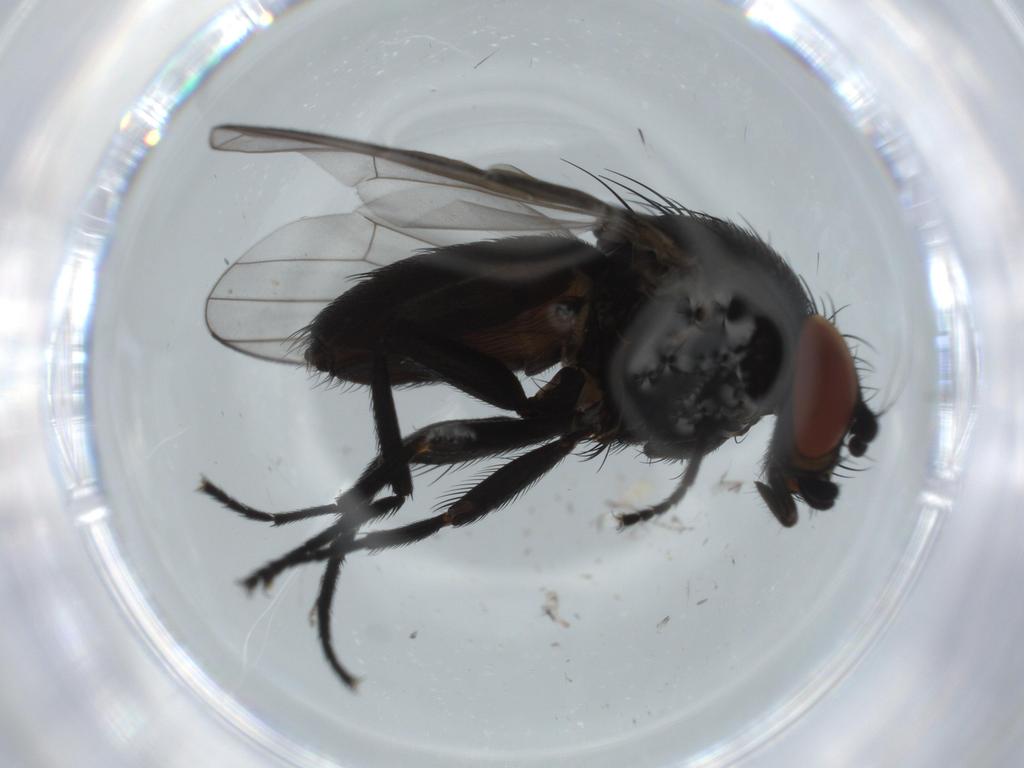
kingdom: Animalia
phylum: Arthropoda
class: Insecta
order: Diptera
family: Milichiidae
